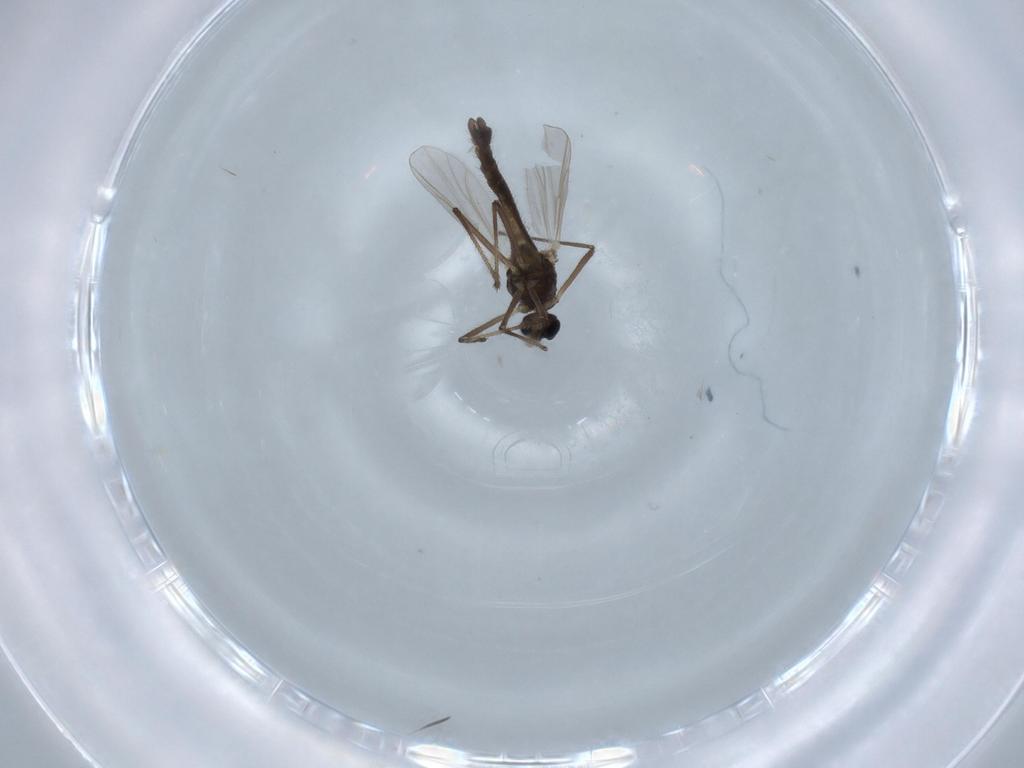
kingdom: Animalia
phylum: Arthropoda
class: Insecta
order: Diptera
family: Chironomidae
